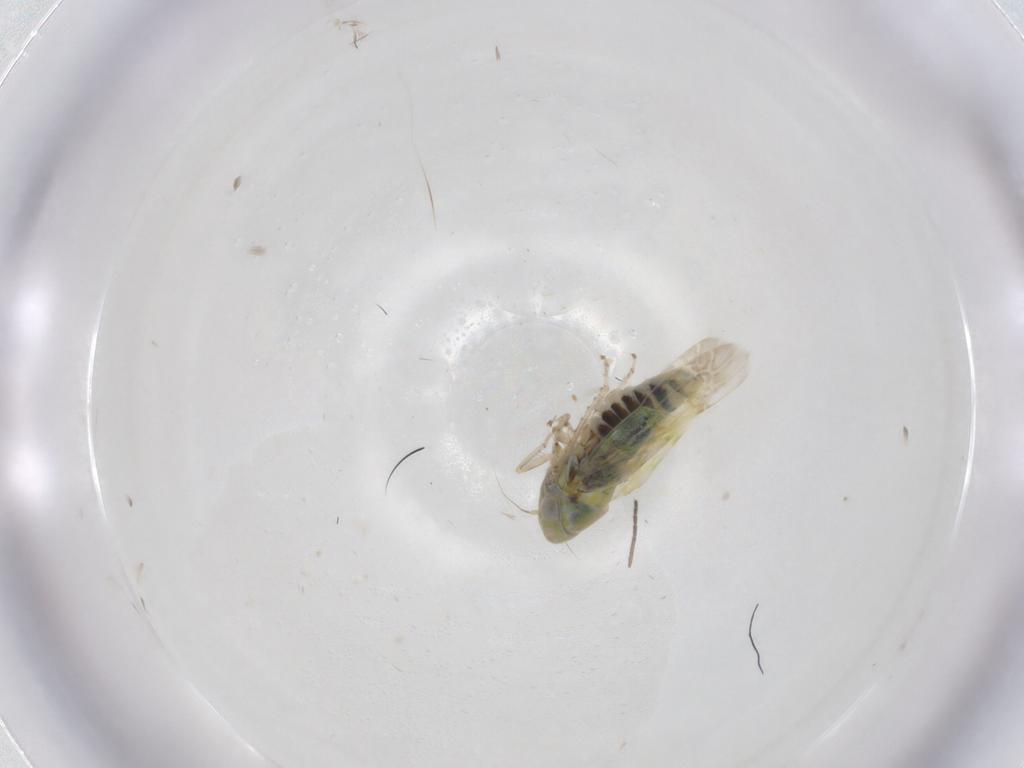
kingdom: Animalia
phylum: Arthropoda
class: Insecta
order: Hemiptera
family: Cicadellidae
